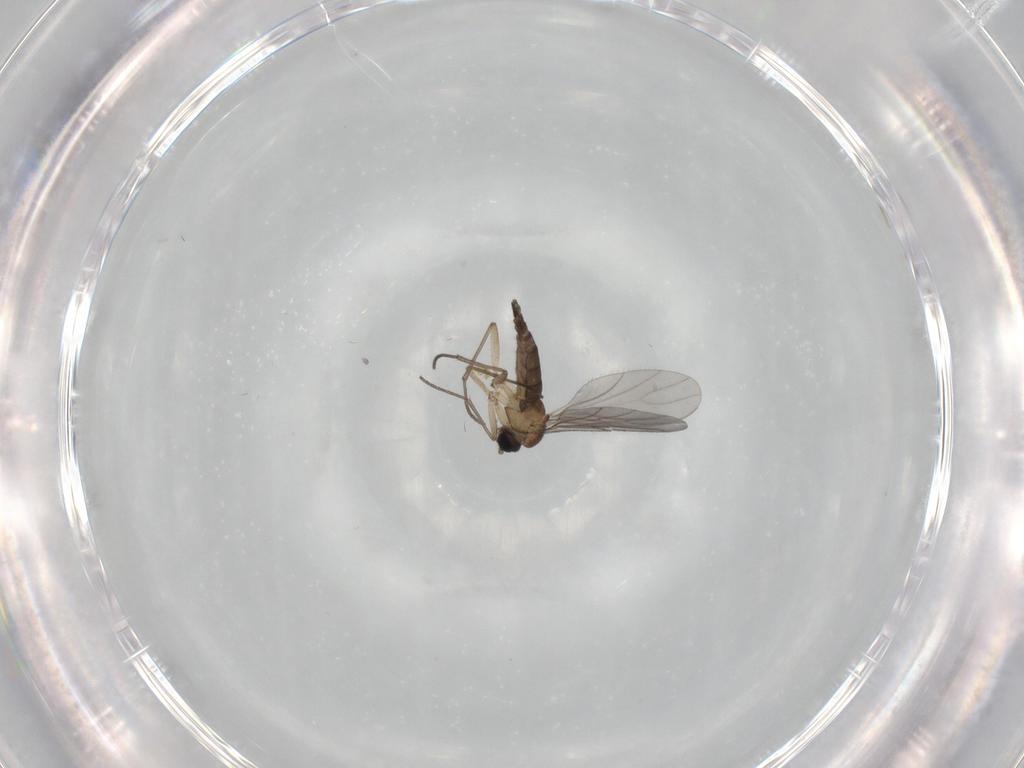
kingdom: Animalia
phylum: Arthropoda
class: Insecta
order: Diptera
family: Sciaridae
